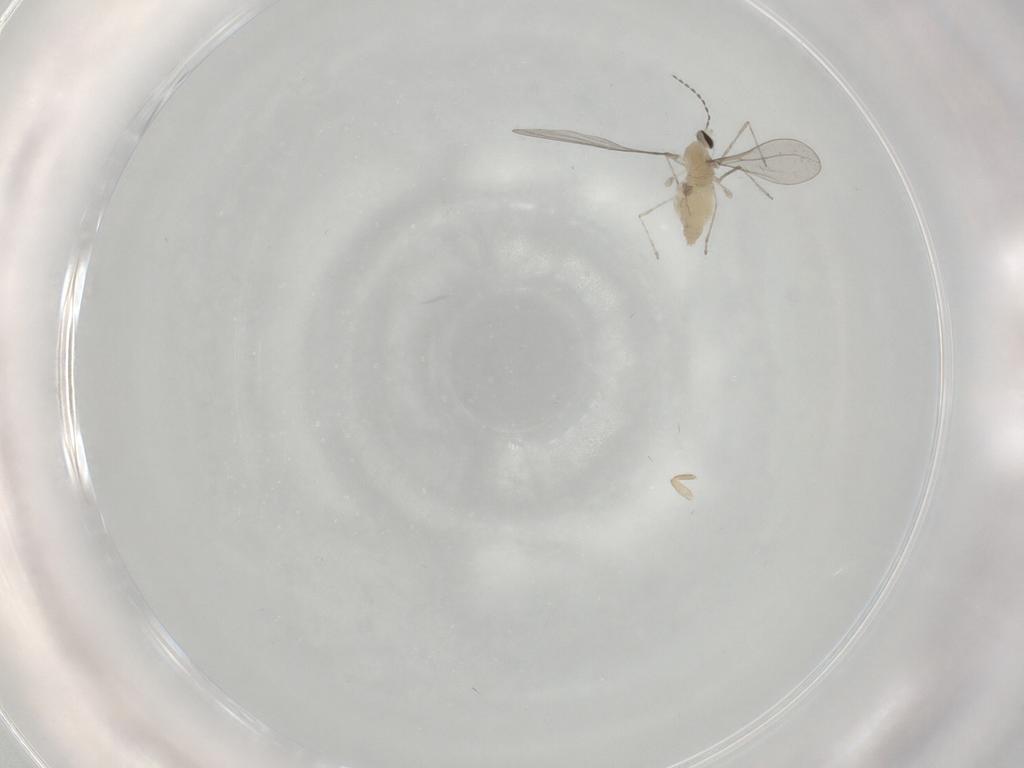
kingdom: Animalia
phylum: Arthropoda
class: Insecta
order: Diptera
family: Cecidomyiidae
